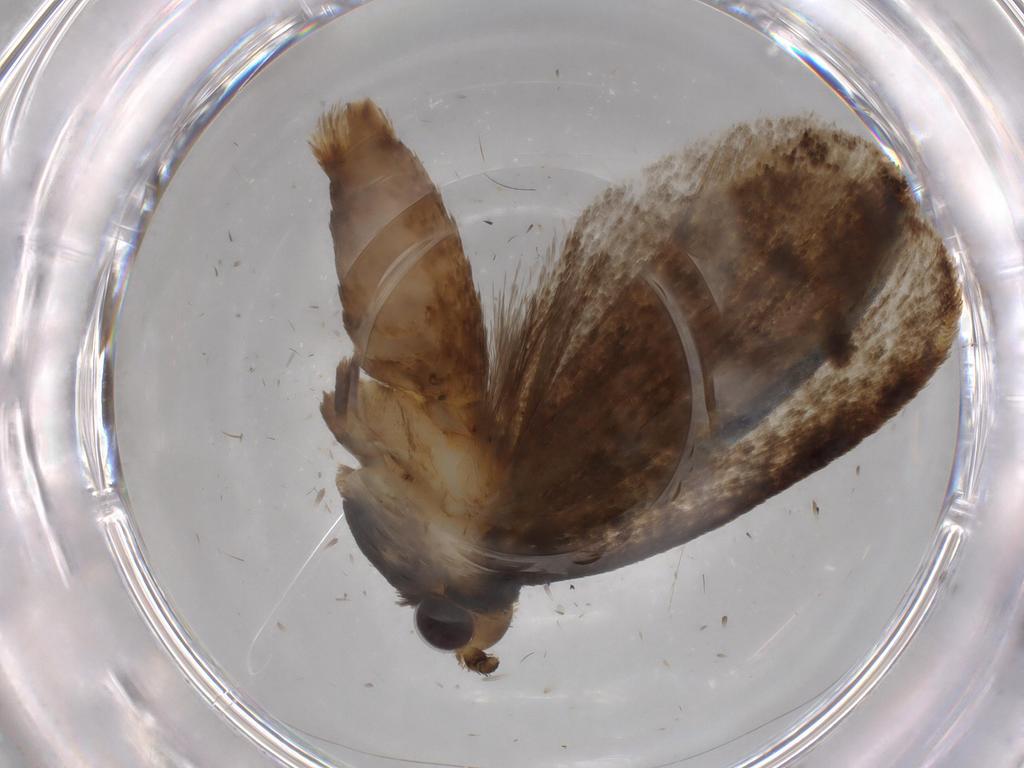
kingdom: Animalia
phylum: Arthropoda
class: Insecta
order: Lepidoptera
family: Tineidae
